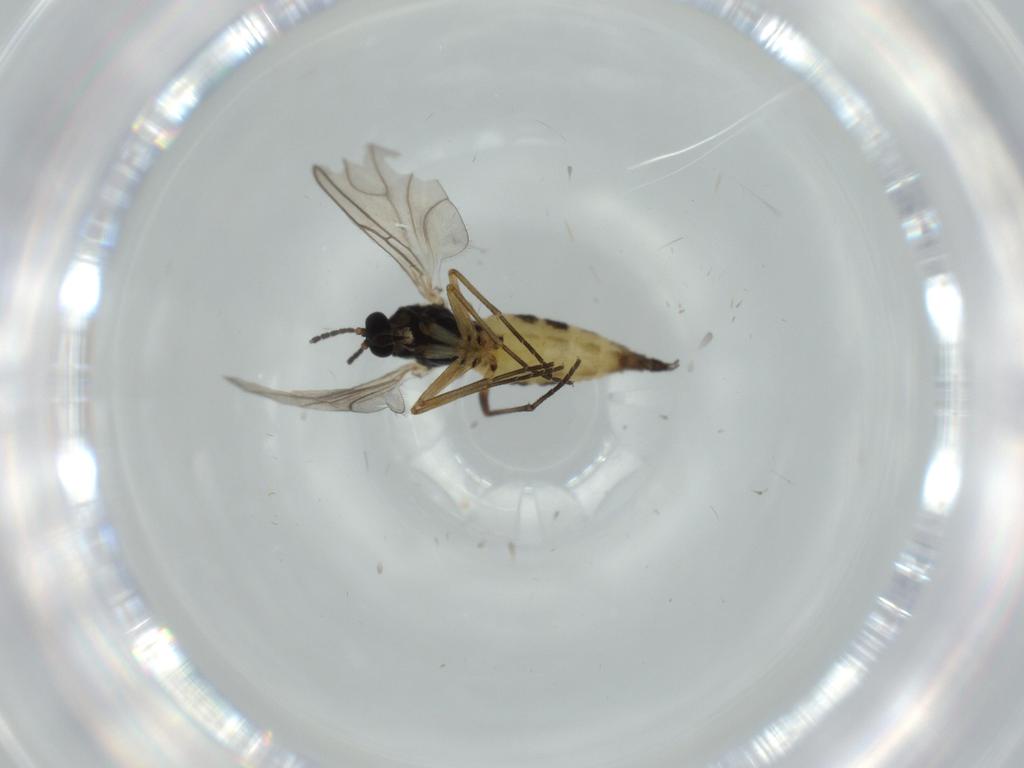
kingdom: Animalia
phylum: Arthropoda
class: Insecta
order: Diptera
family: Sciaridae
